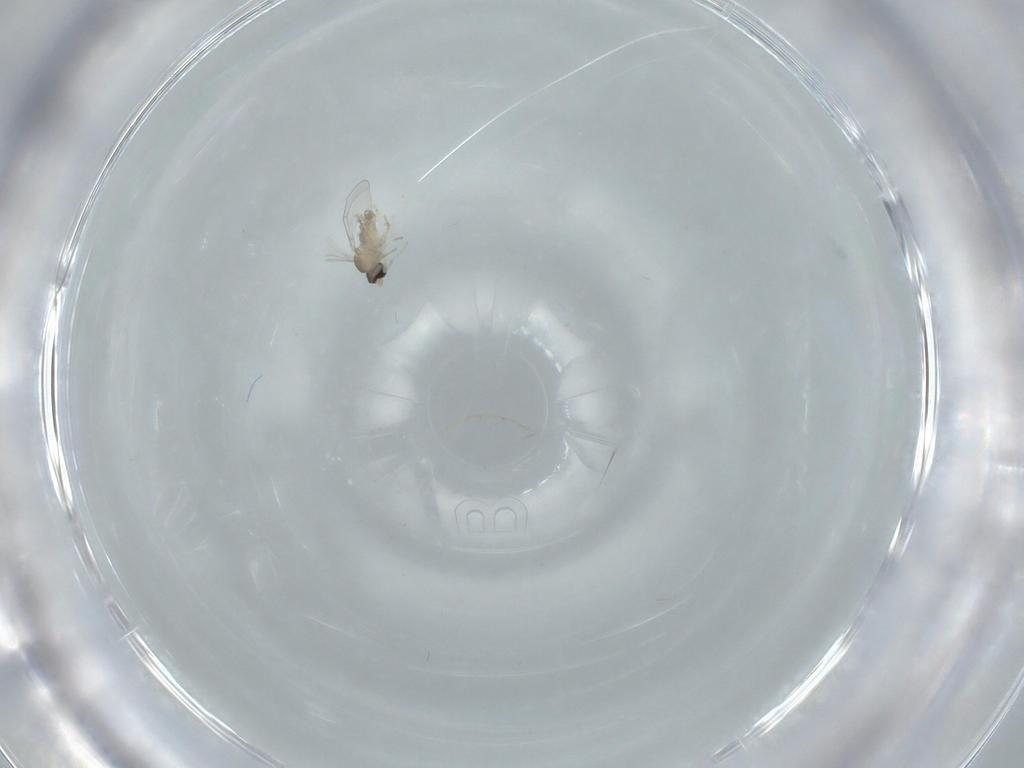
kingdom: Animalia
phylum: Arthropoda
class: Insecta
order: Diptera
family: Cecidomyiidae
